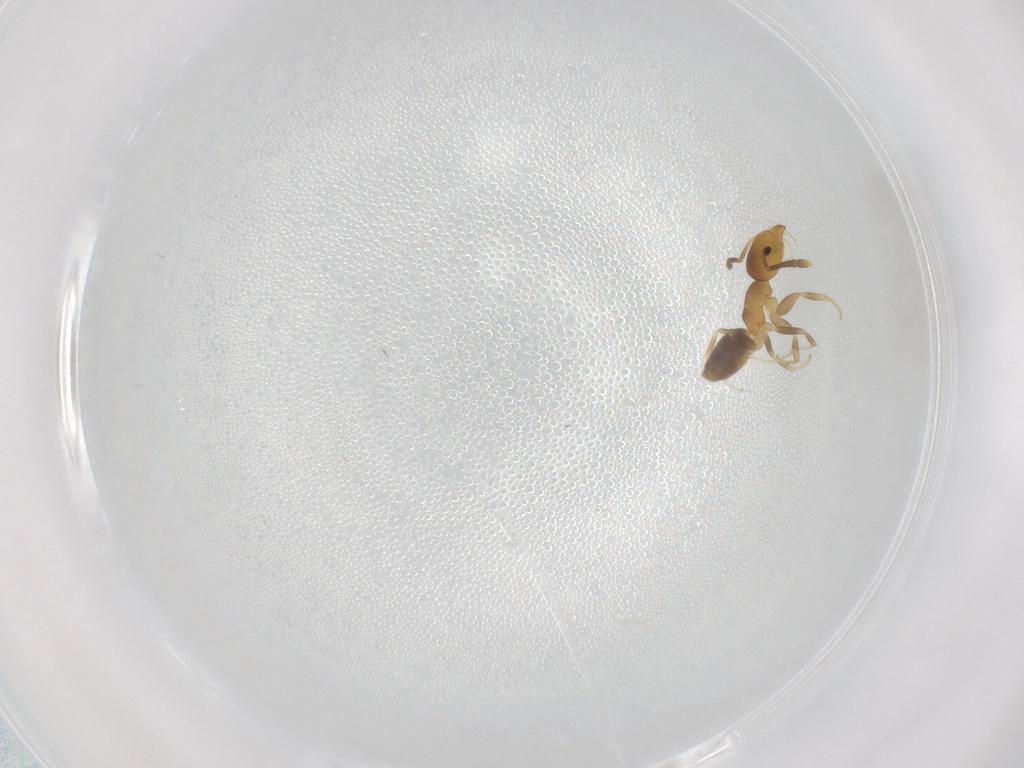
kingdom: Animalia
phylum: Arthropoda
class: Insecta
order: Hymenoptera
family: Formicidae
